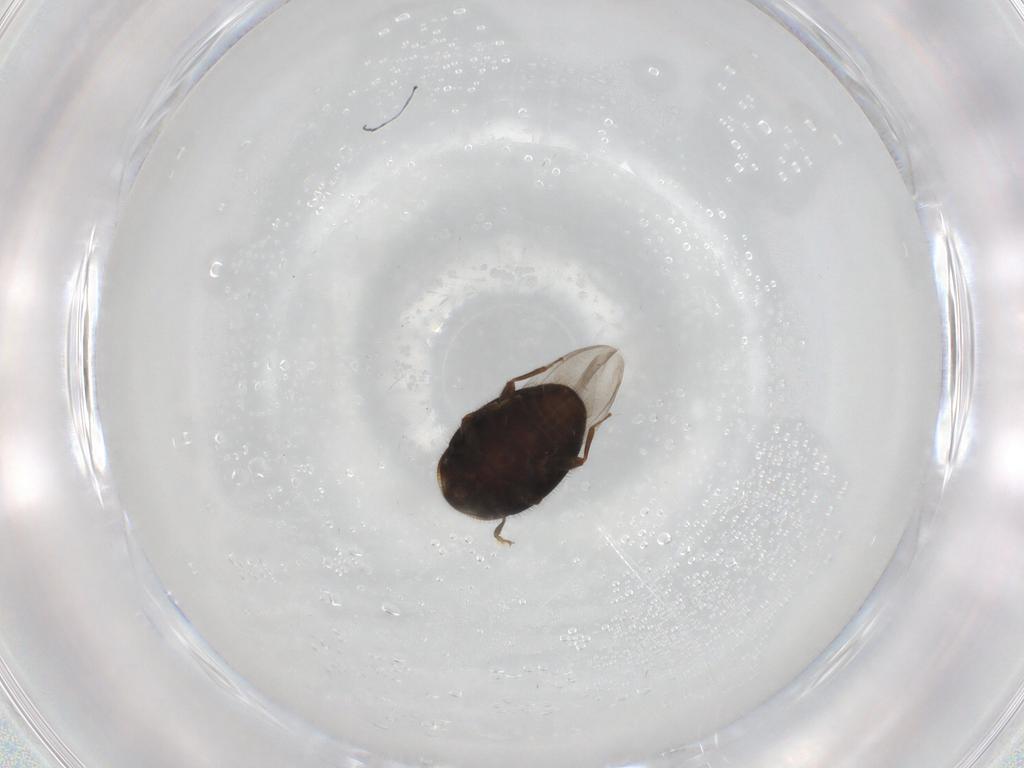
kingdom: Animalia
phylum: Arthropoda
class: Insecta
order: Coleoptera
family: Corylophidae
